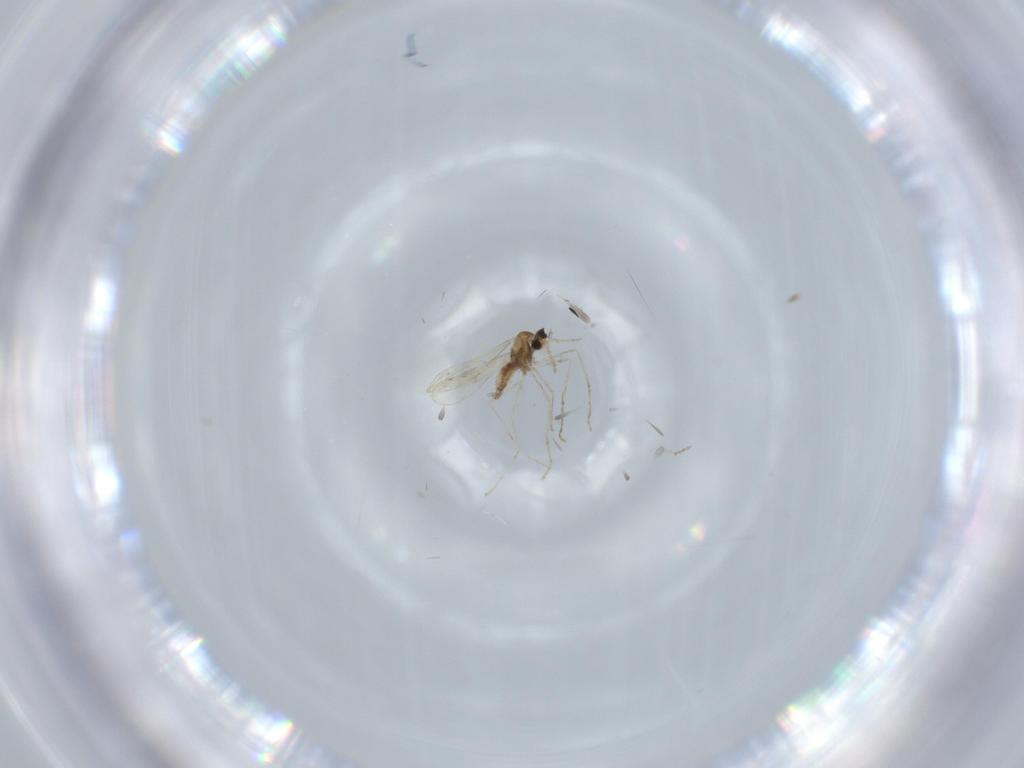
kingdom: Animalia
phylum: Arthropoda
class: Insecta
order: Diptera
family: Cecidomyiidae
